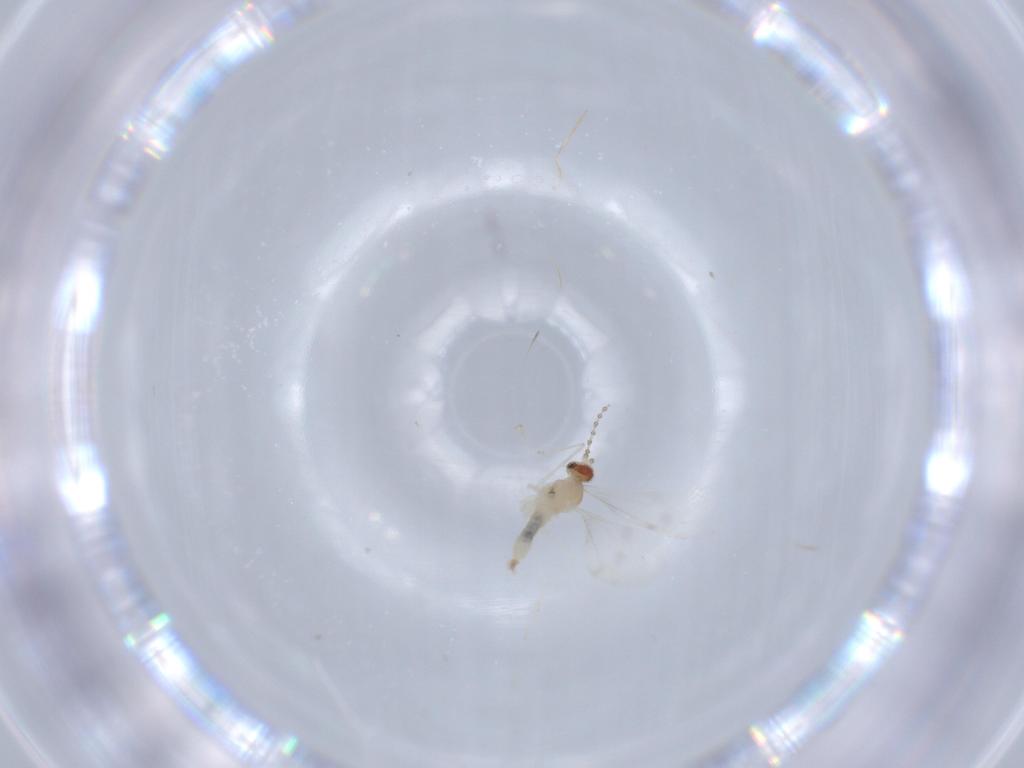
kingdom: Animalia
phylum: Arthropoda
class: Insecta
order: Diptera
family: Cecidomyiidae
